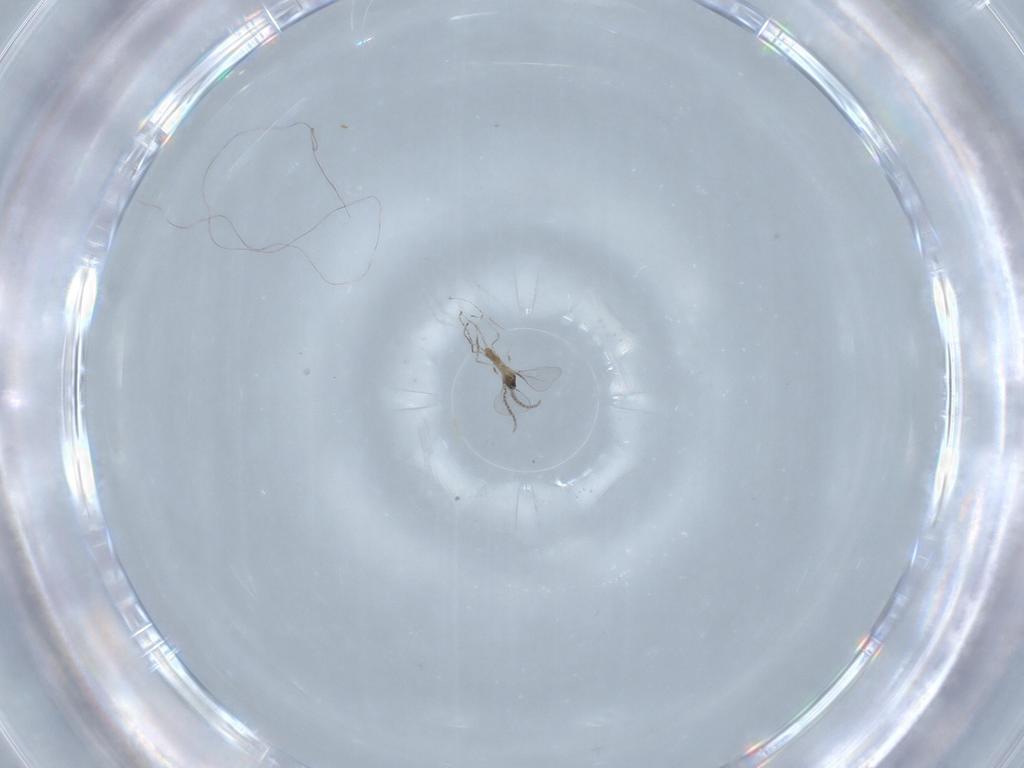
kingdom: Animalia
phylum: Arthropoda
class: Insecta
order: Diptera
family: Cecidomyiidae
